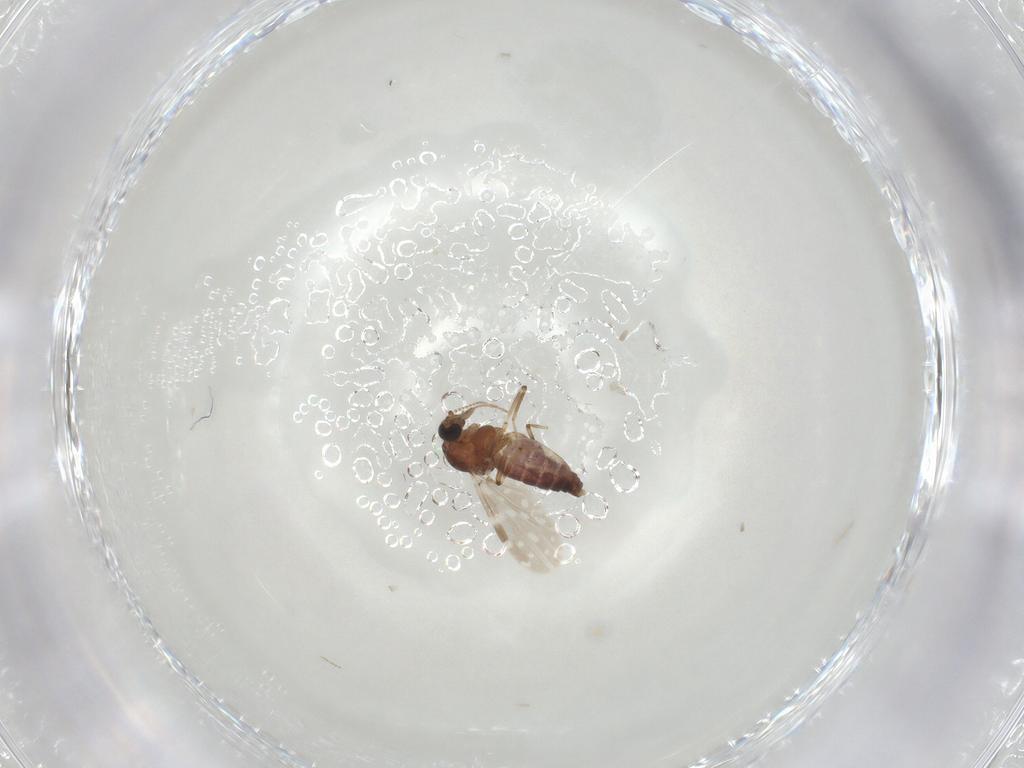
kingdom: Animalia
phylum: Arthropoda
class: Insecta
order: Diptera
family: Ceratopogonidae
